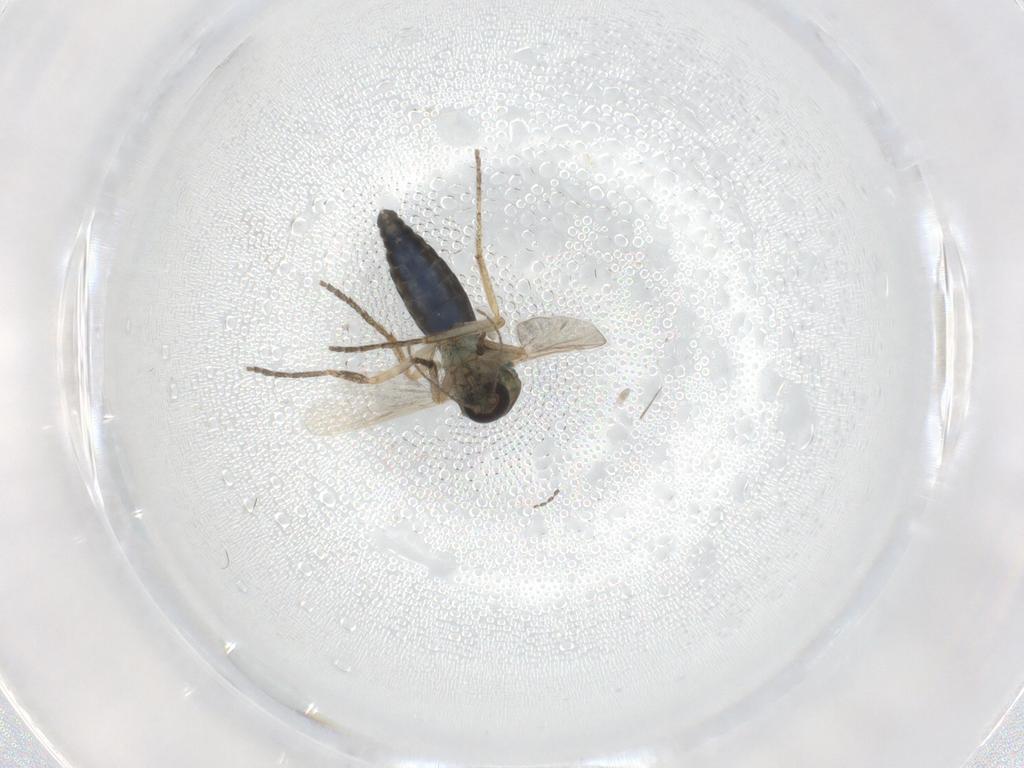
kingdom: Animalia
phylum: Arthropoda
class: Insecta
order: Diptera
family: Ceratopogonidae
